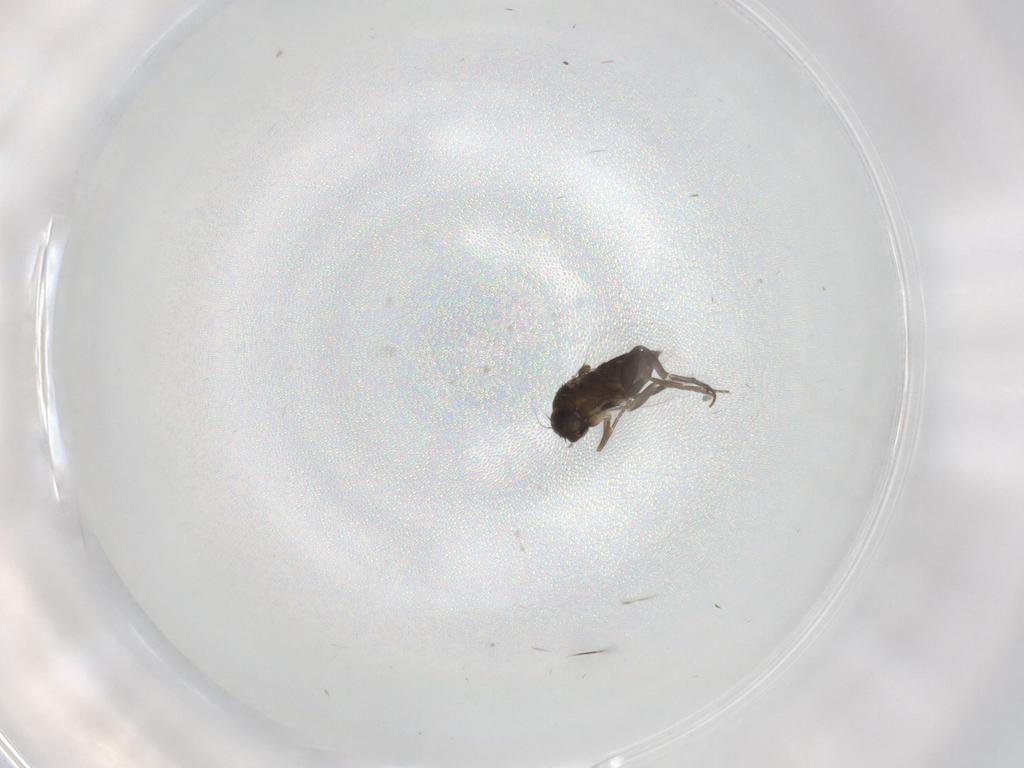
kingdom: Animalia
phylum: Arthropoda
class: Insecta
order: Diptera
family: Phoridae
